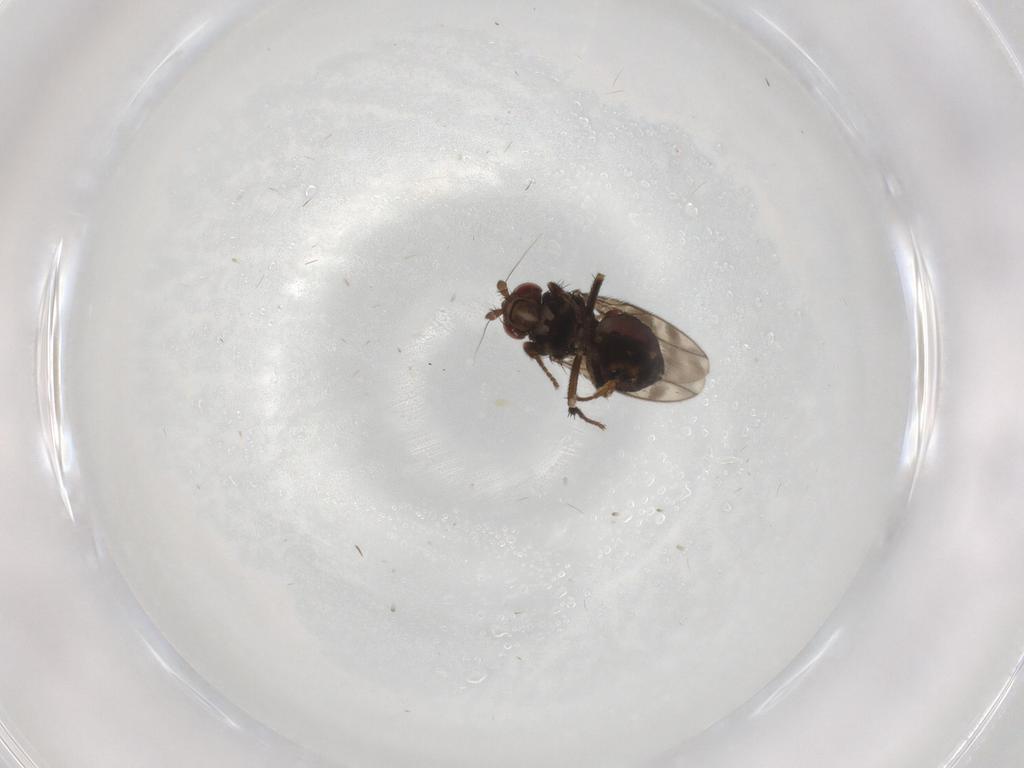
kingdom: Animalia
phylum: Arthropoda
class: Insecta
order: Diptera
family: Sphaeroceridae
